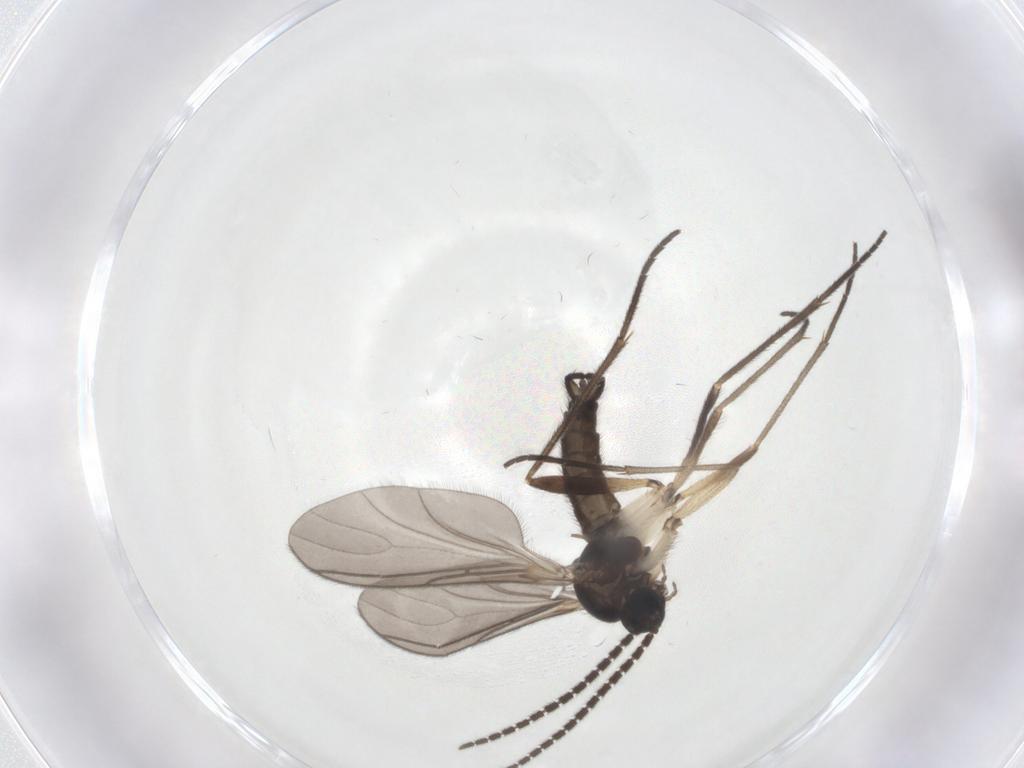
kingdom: Animalia
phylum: Arthropoda
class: Insecta
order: Diptera
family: Sciaridae
